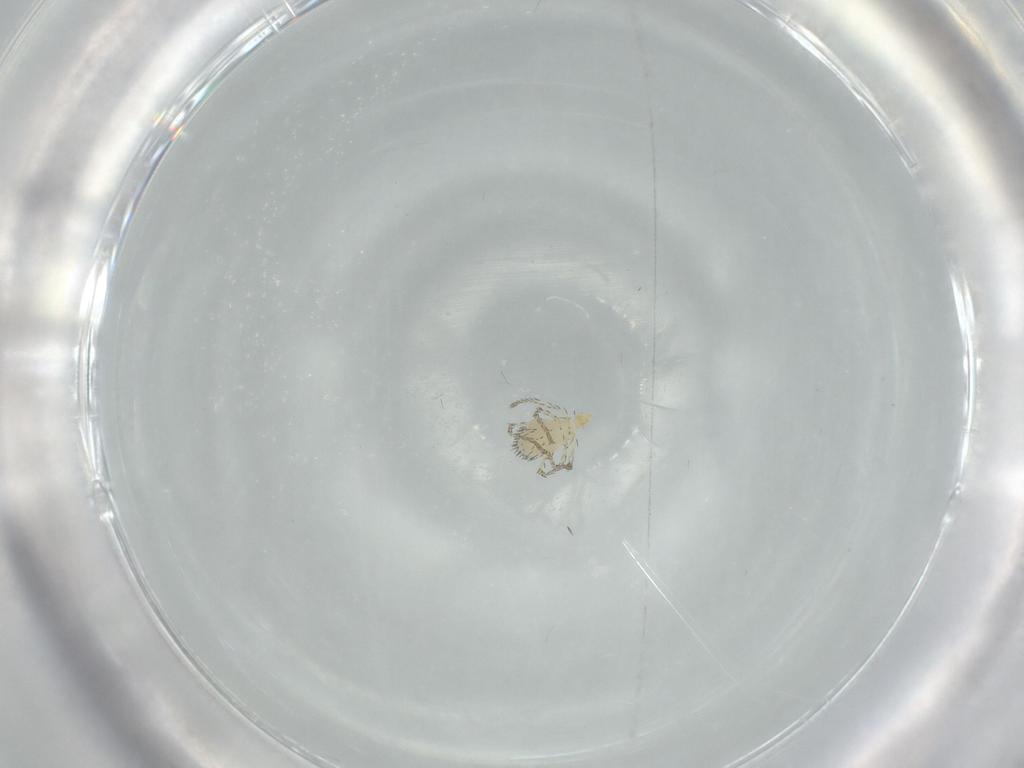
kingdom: Animalia
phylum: Arthropoda
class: Arachnida
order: Trombidiformes
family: Erythraeidae
